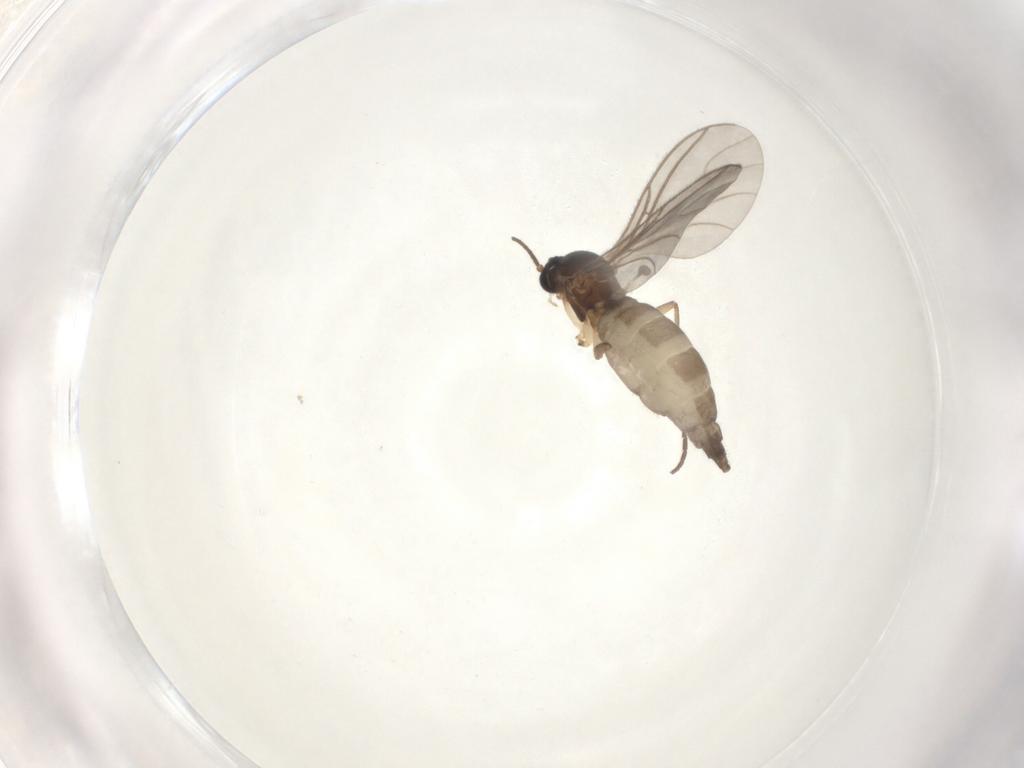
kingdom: Animalia
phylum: Arthropoda
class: Insecta
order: Diptera
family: Sciaridae
